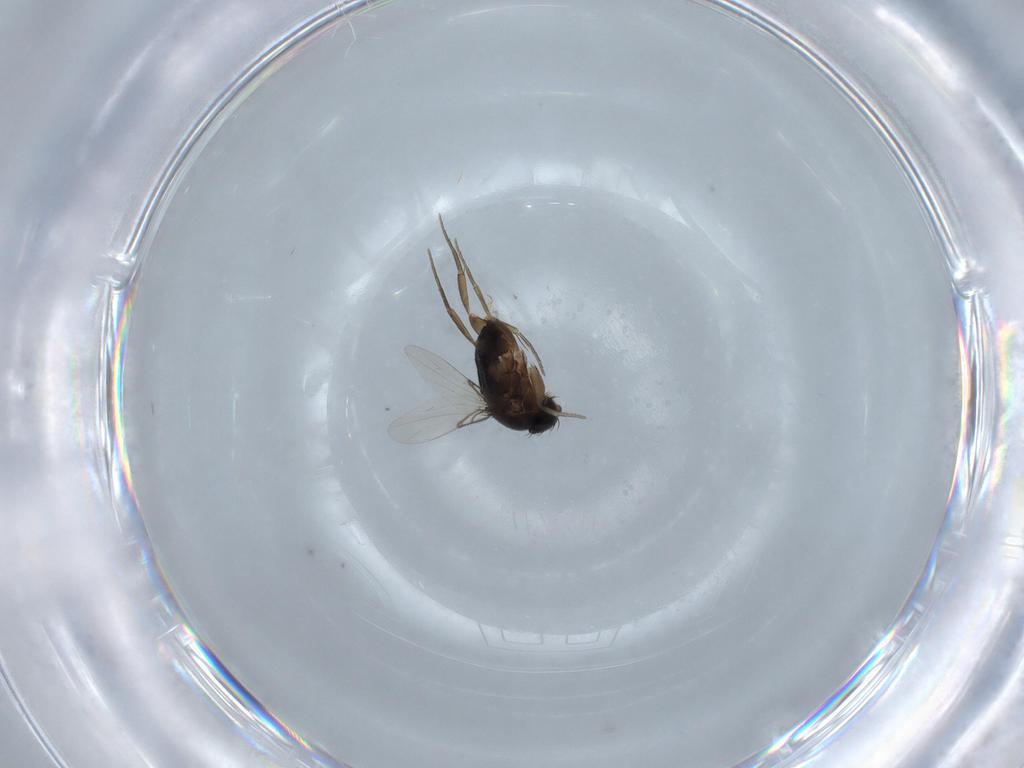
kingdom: Animalia
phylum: Arthropoda
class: Insecta
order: Diptera
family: Phoridae
